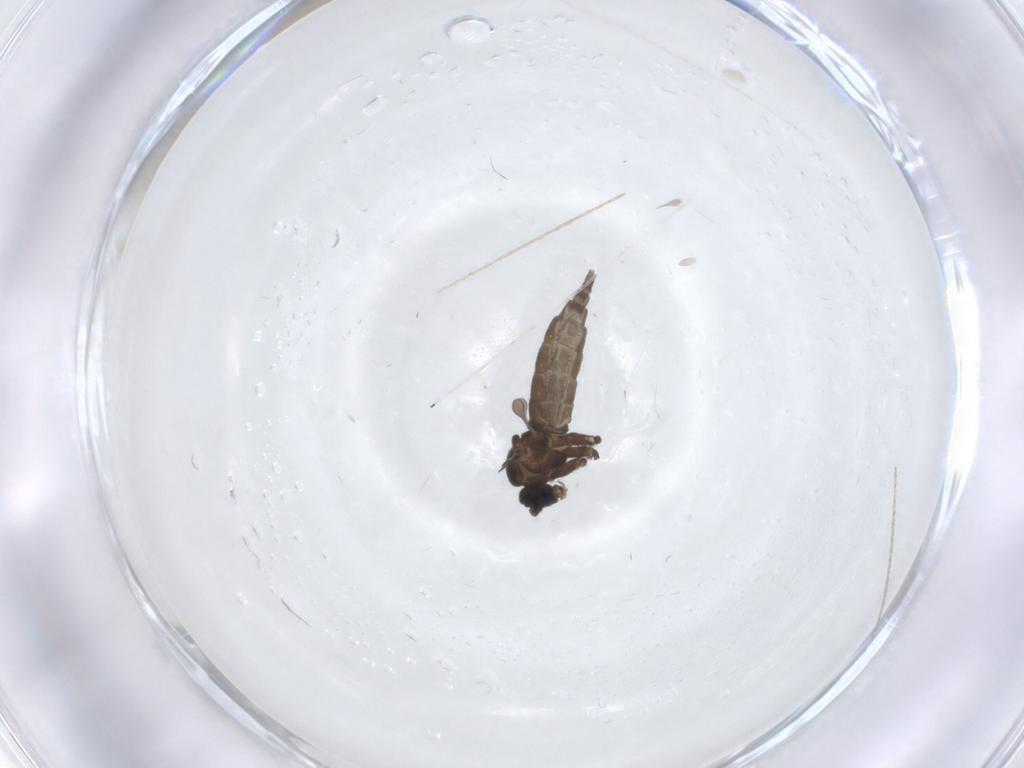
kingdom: Animalia
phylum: Arthropoda
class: Insecta
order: Diptera
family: Sciaridae
